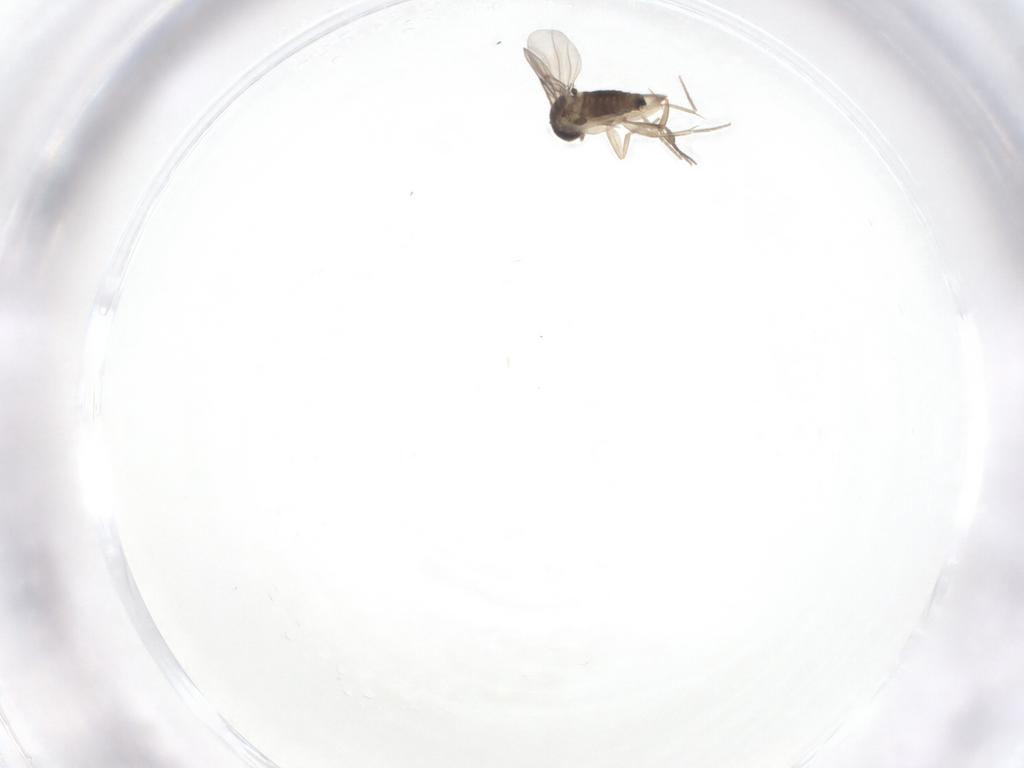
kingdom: Animalia
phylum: Arthropoda
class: Insecta
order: Diptera
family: Phoridae
